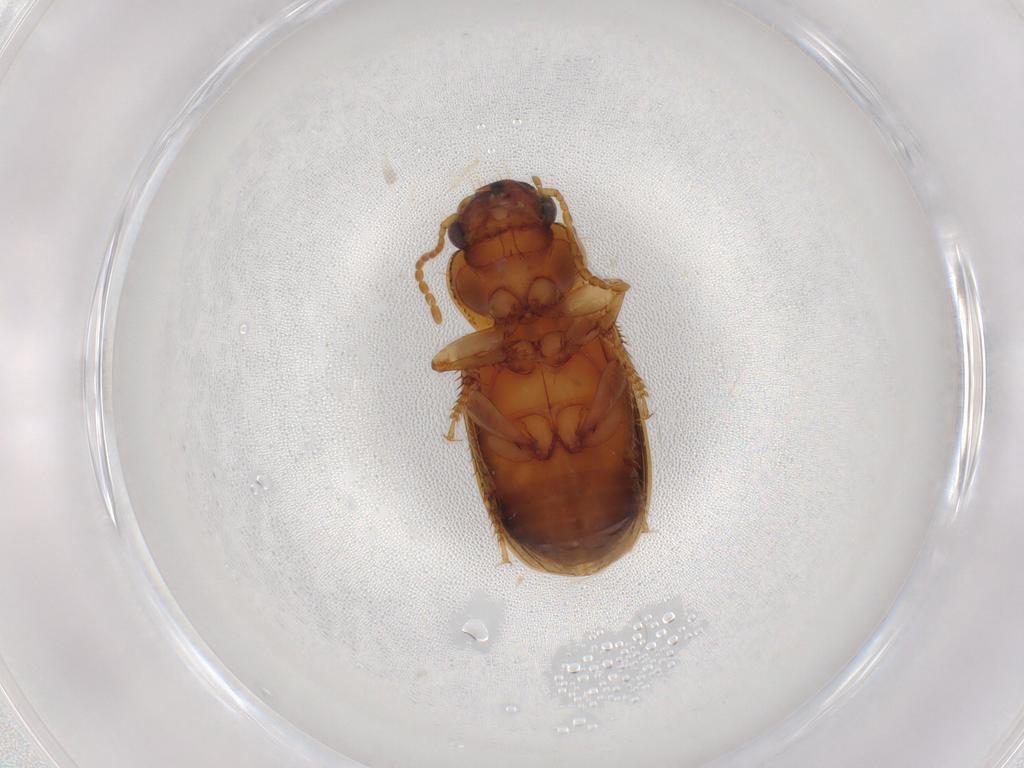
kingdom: Animalia
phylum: Arthropoda
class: Insecta
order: Coleoptera
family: Carabidae
